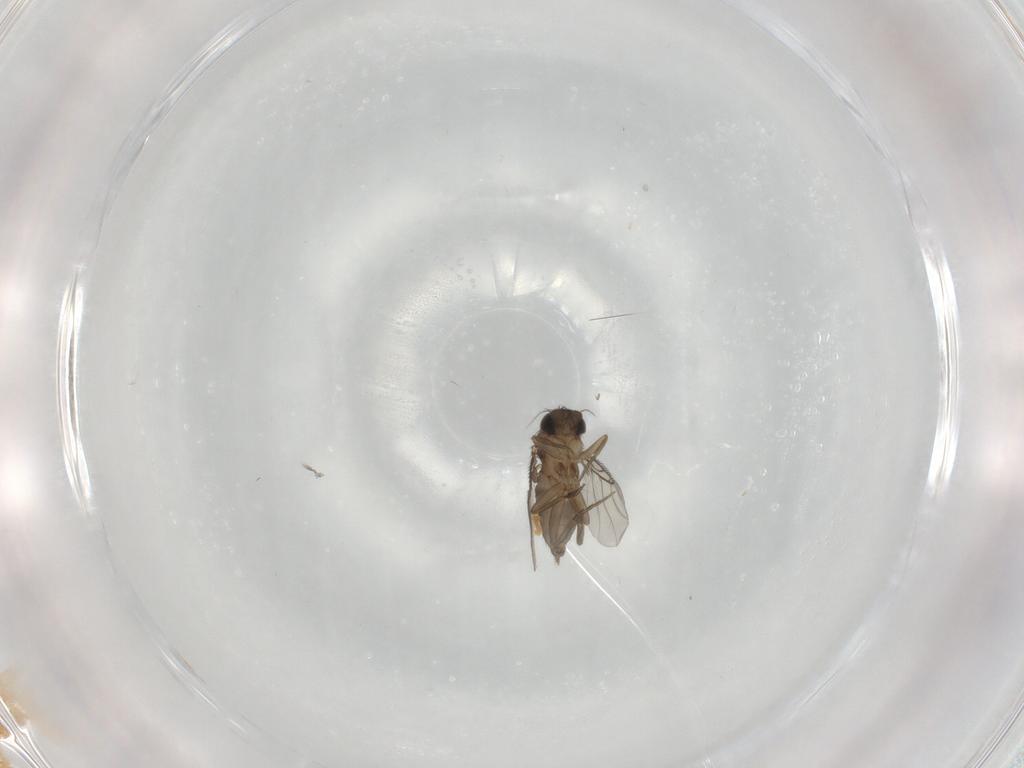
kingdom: Animalia
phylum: Arthropoda
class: Insecta
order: Diptera
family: Phoridae
